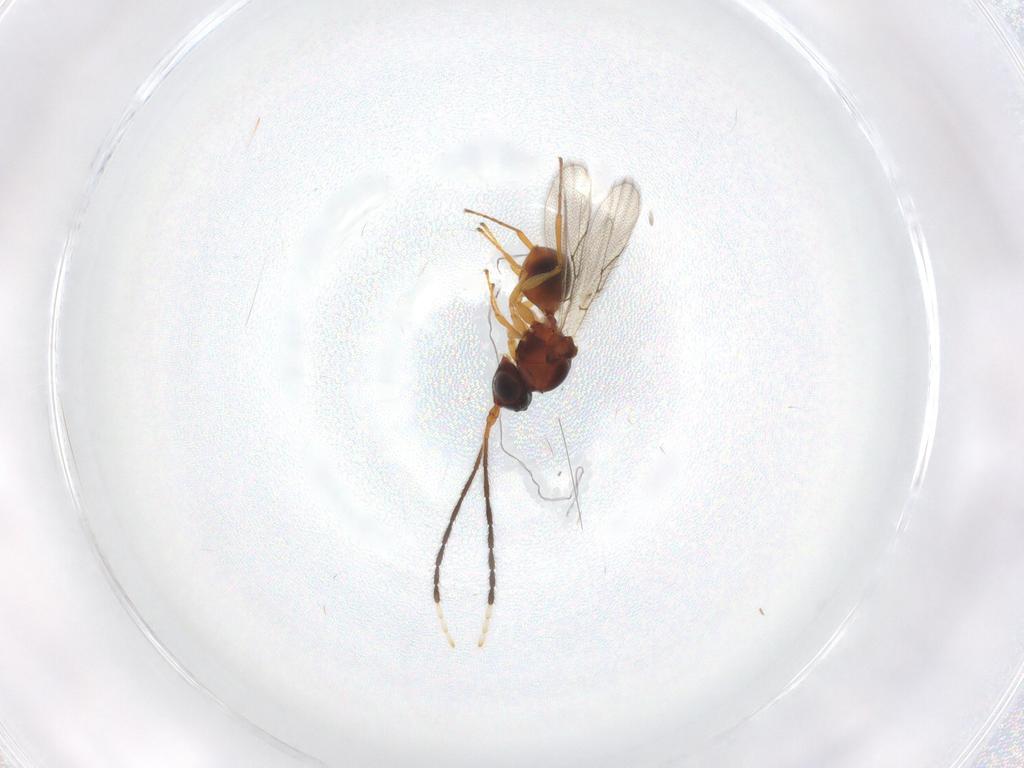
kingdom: Animalia
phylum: Arthropoda
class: Insecta
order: Hymenoptera
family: Figitidae
